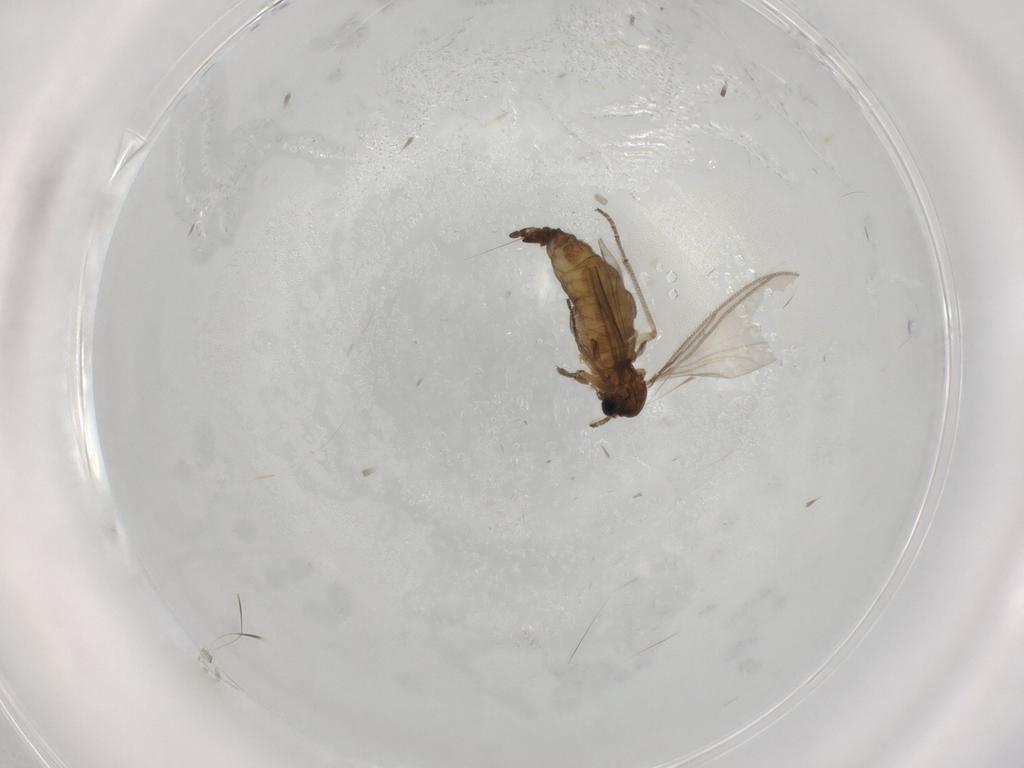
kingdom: Animalia
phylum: Arthropoda
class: Insecta
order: Diptera
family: Sciaridae
